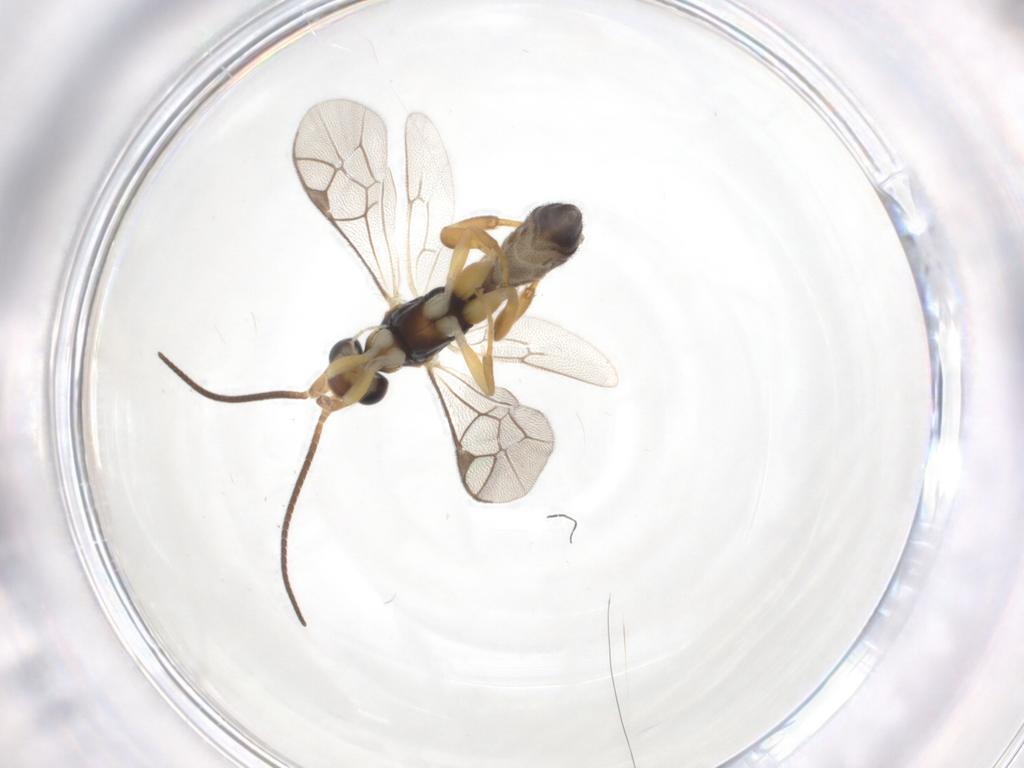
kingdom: Animalia
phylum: Arthropoda
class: Insecta
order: Hymenoptera
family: Ichneumonidae
